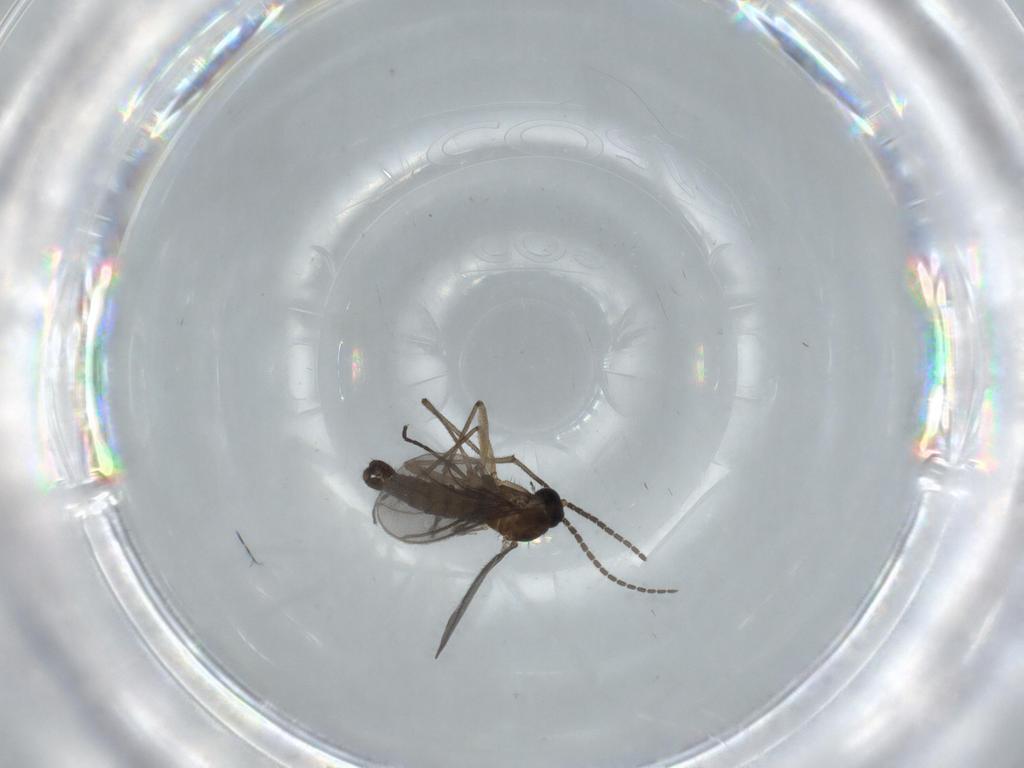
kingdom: Animalia
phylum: Arthropoda
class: Insecta
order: Diptera
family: Sciaridae
